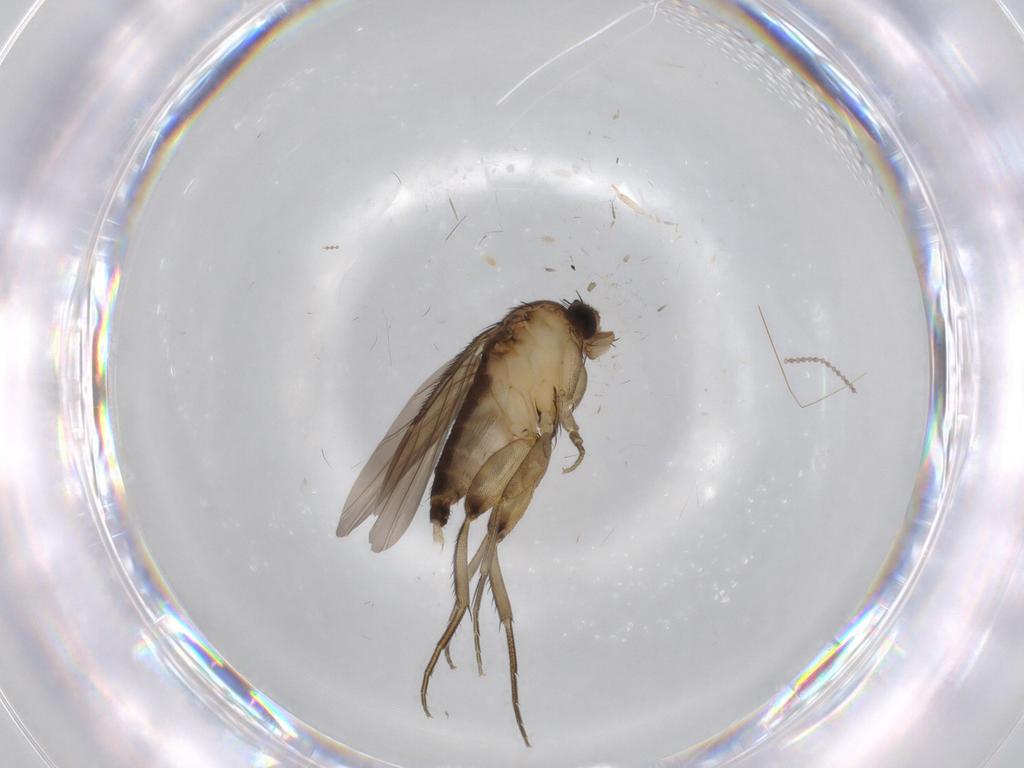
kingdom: Animalia
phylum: Arthropoda
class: Insecta
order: Diptera
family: Phoridae
